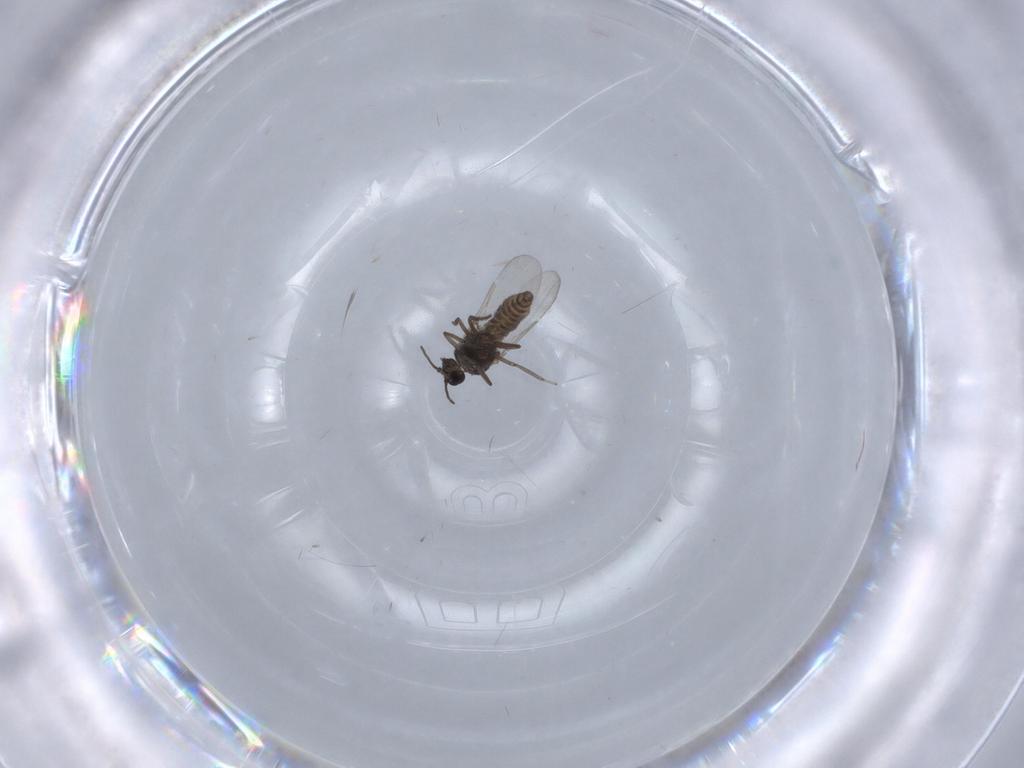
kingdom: Animalia
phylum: Arthropoda
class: Insecta
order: Diptera
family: Ceratopogonidae
